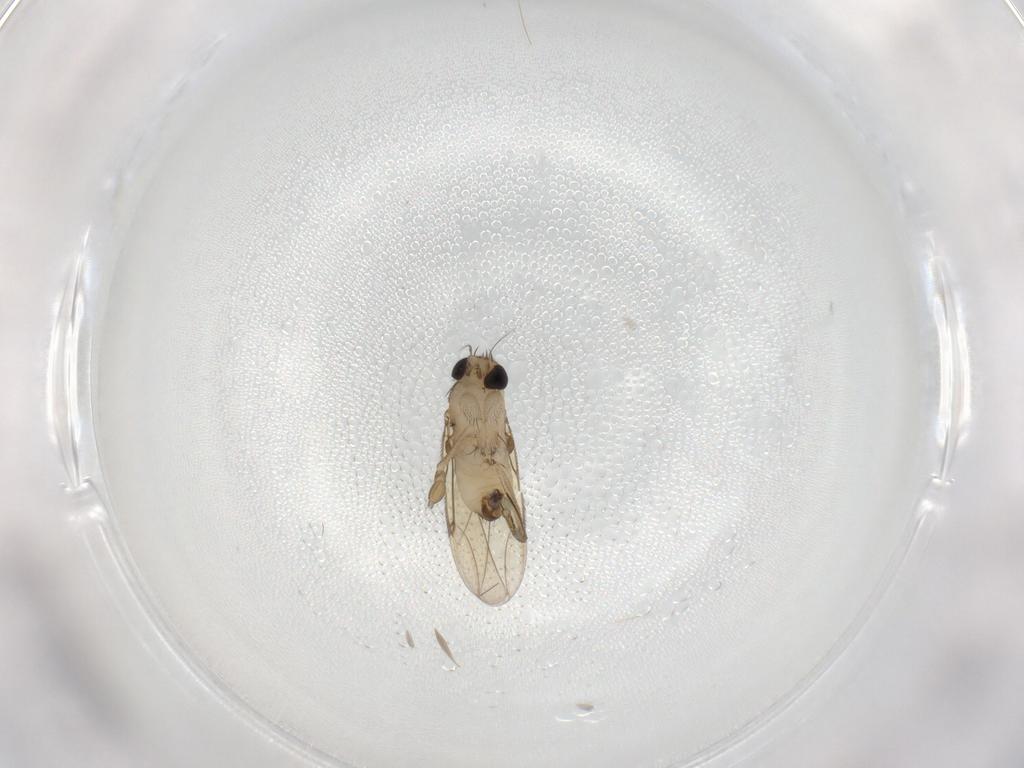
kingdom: Animalia
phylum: Arthropoda
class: Insecta
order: Diptera
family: Phoridae
